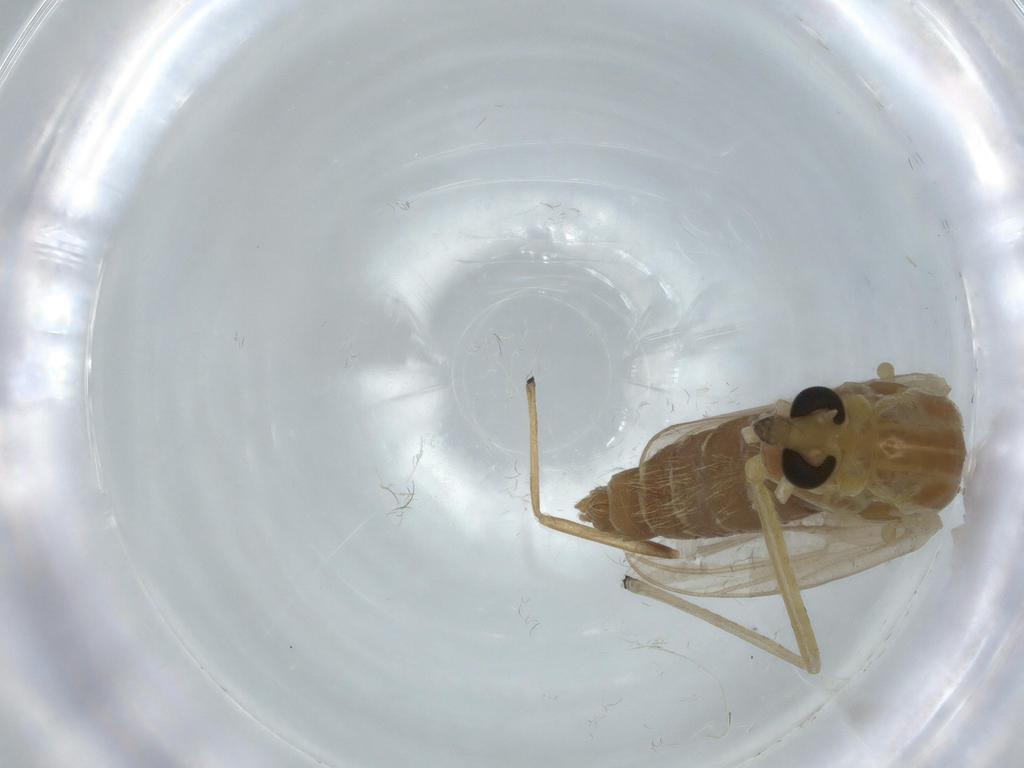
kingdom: Animalia
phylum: Arthropoda
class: Insecta
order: Diptera
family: Chironomidae
